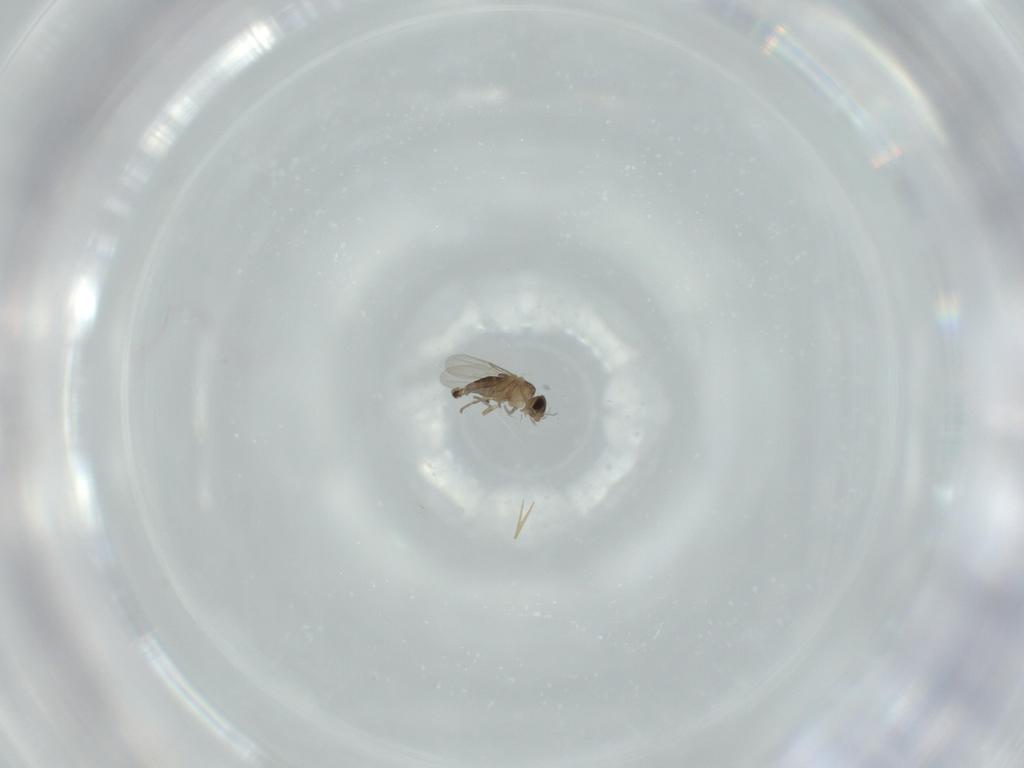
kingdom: Animalia
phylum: Arthropoda
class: Insecta
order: Diptera
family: Phoridae
